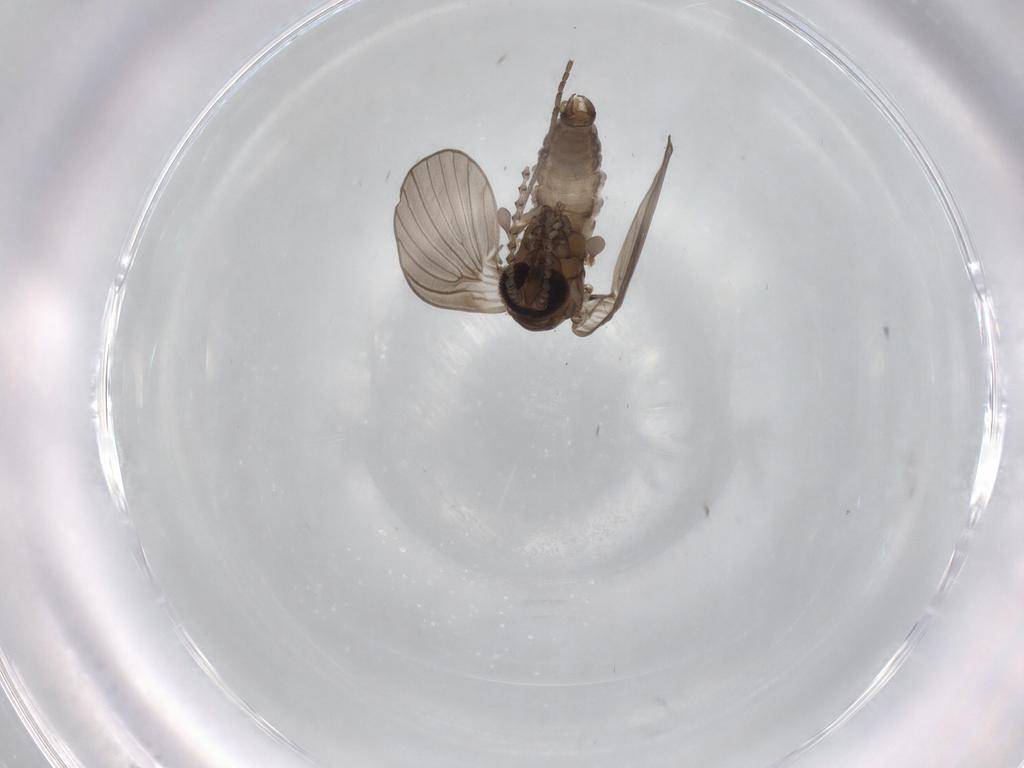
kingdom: Animalia
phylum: Arthropoda
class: Insecta
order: Diptera
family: Psychodidae
